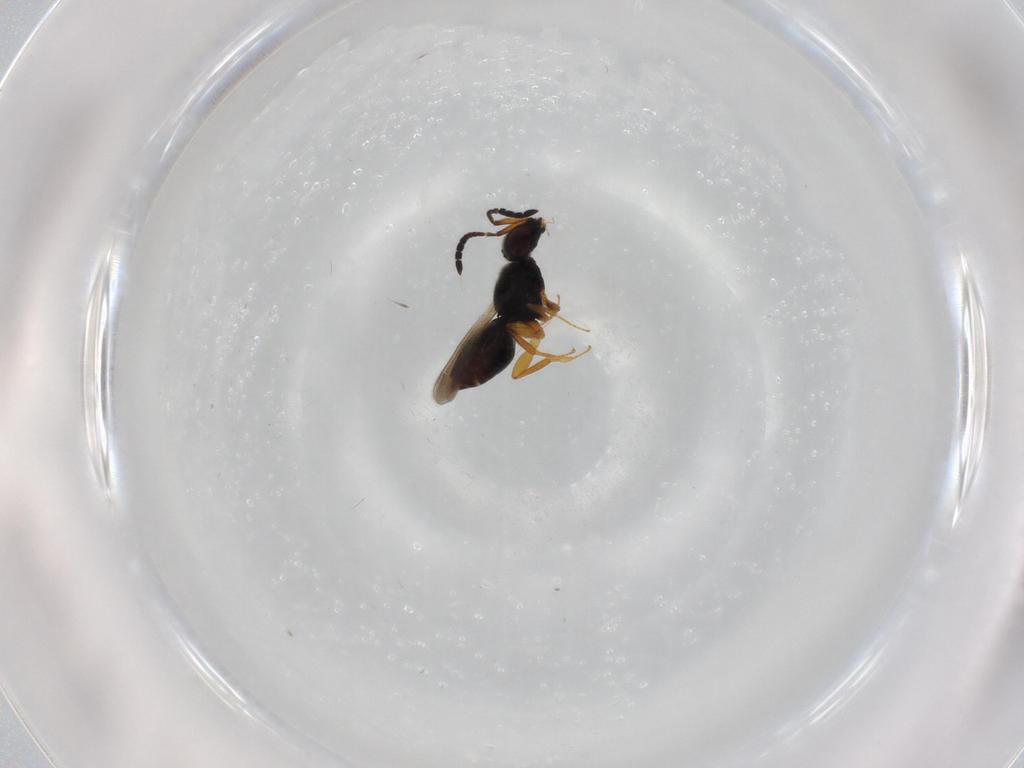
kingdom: Animalia
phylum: Arthropoda
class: Insecta
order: Hymenoptera
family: Ceraphronidae
